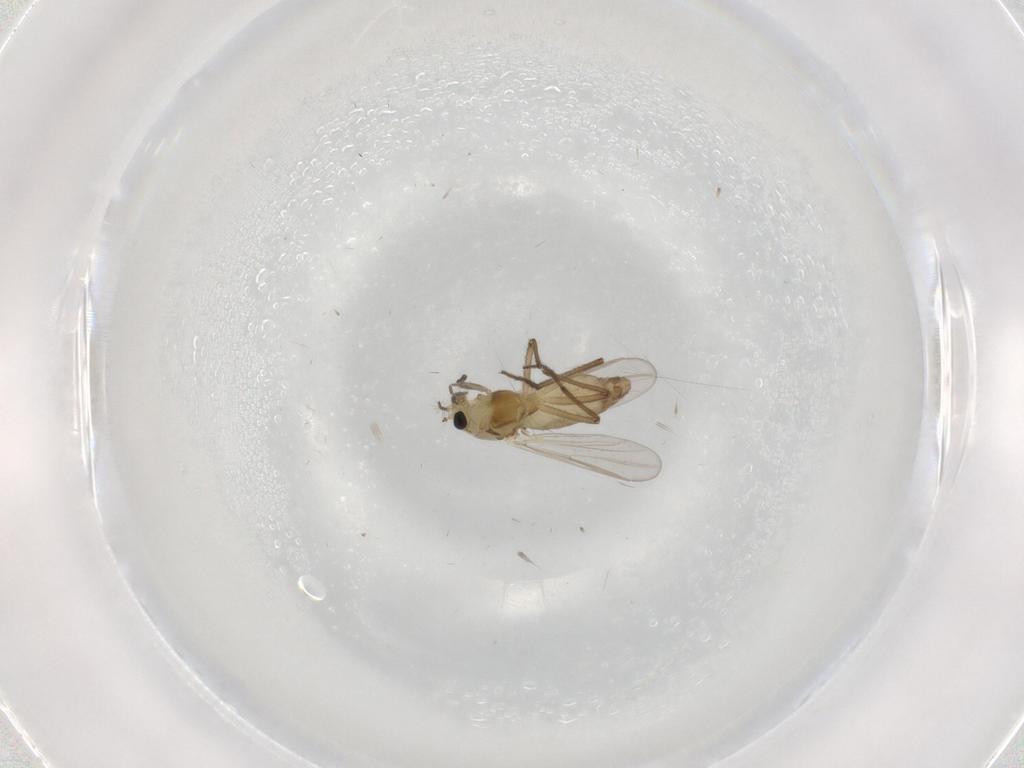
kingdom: Animalia
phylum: Arthropoda
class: Insecta
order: Diptera
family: Chironomidae
